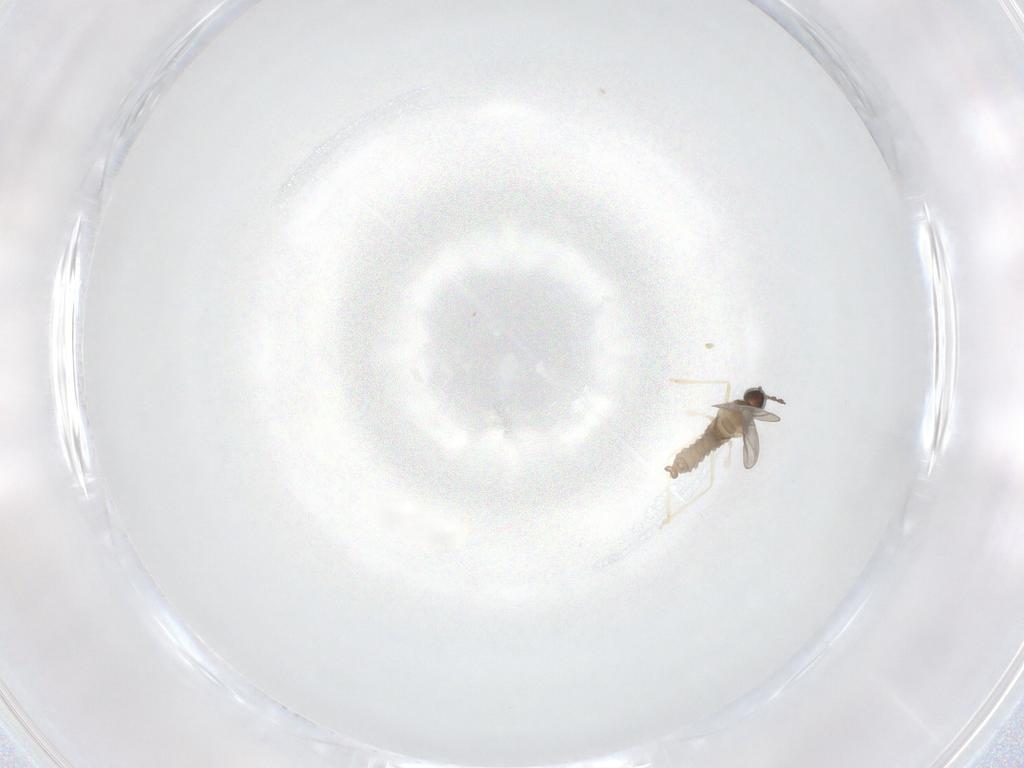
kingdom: Animalia
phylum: Arthropoda
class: Insecta
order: Diptera
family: Cecidomyiidae
